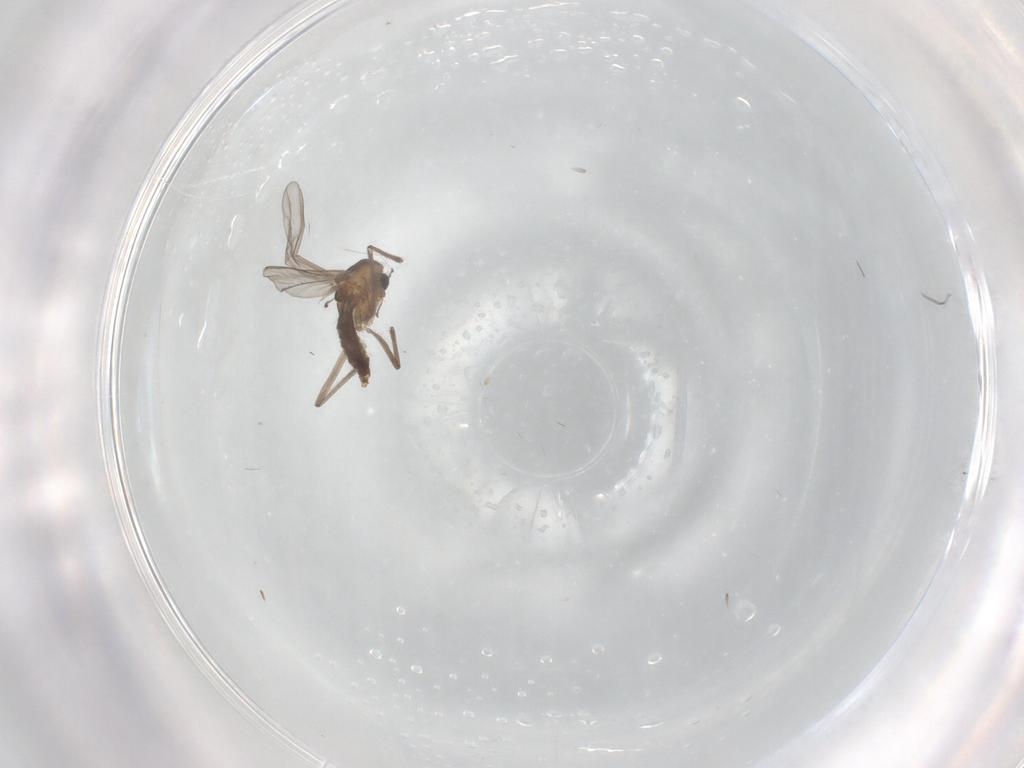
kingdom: Animalia
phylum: Arthropoda
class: Insecta
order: Diptera
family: Chironomidae
